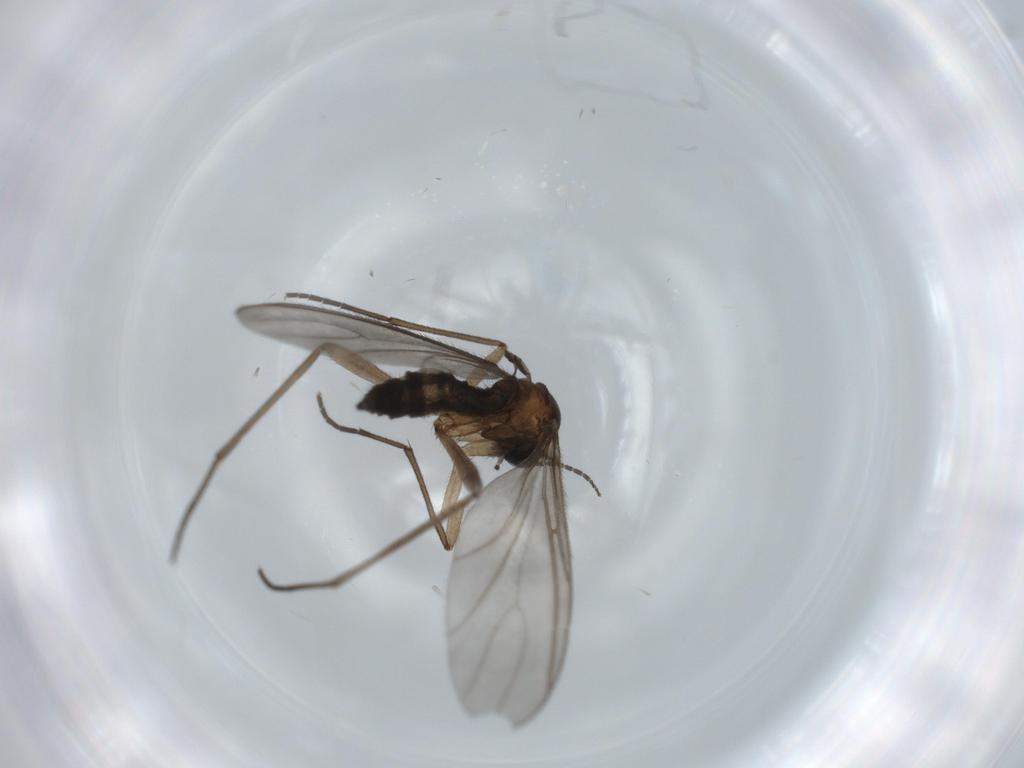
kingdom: Animalia
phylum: Arthropoda
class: Insecta
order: Diptera
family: Sciaridae
